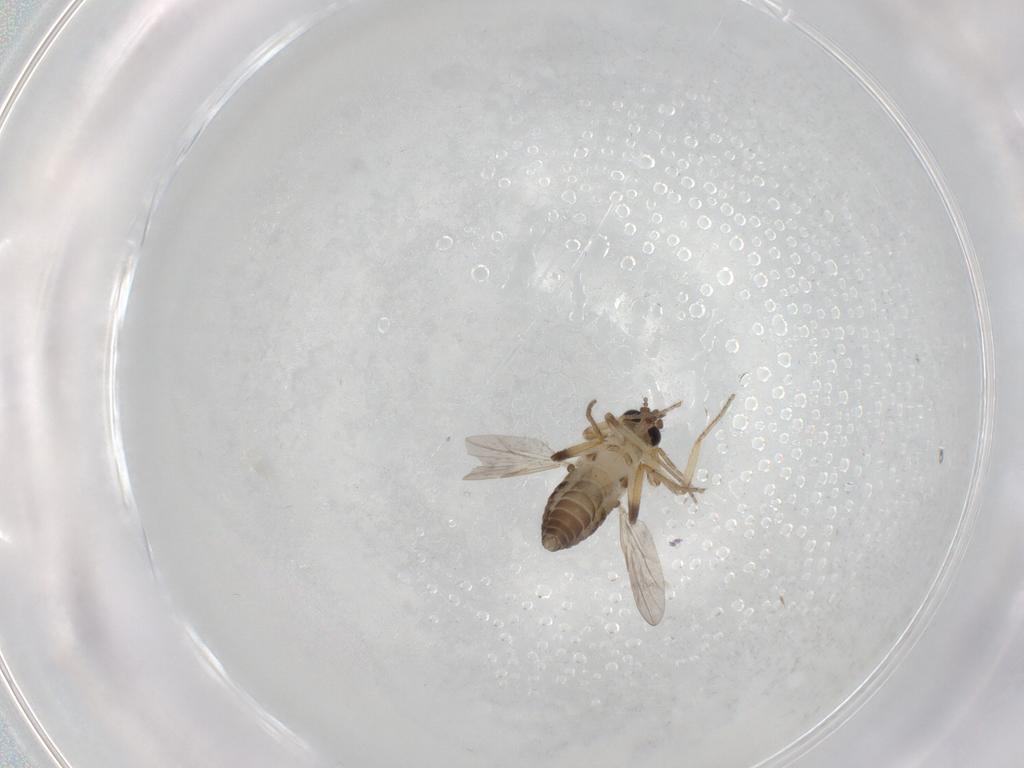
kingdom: Animalia
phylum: Arthropoda
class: Insecta
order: Diptera
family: Ceratopogonidae
